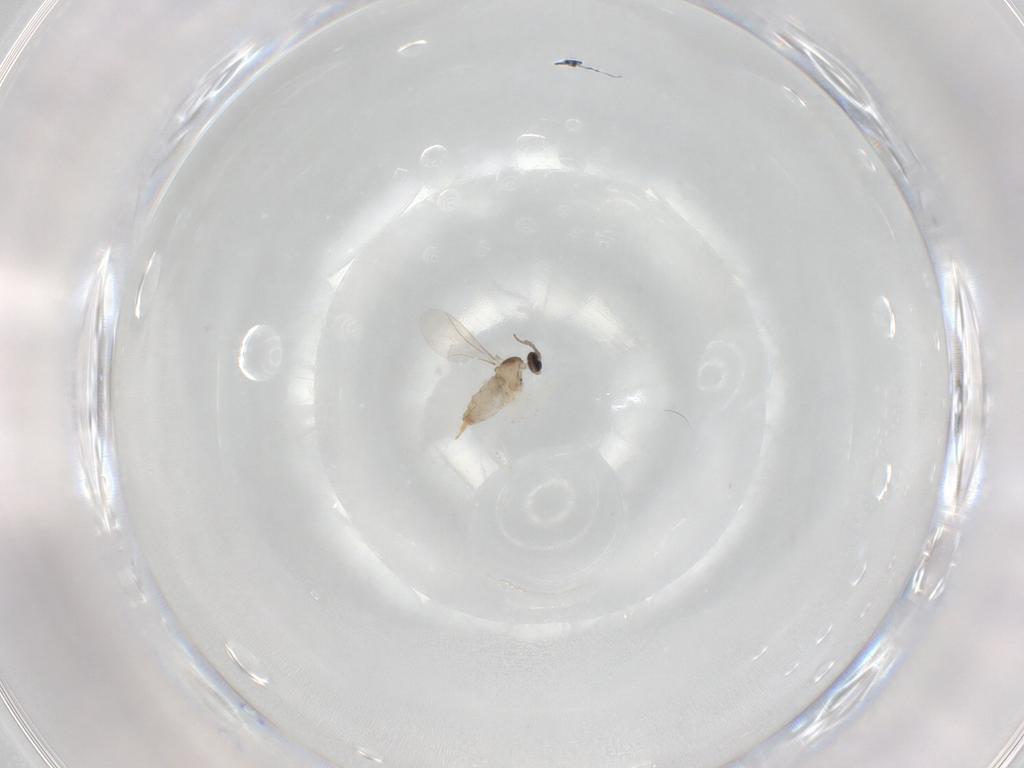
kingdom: Animalia
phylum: Arthropoda
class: Insecta
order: Diptera
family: Cecidomyiidae
